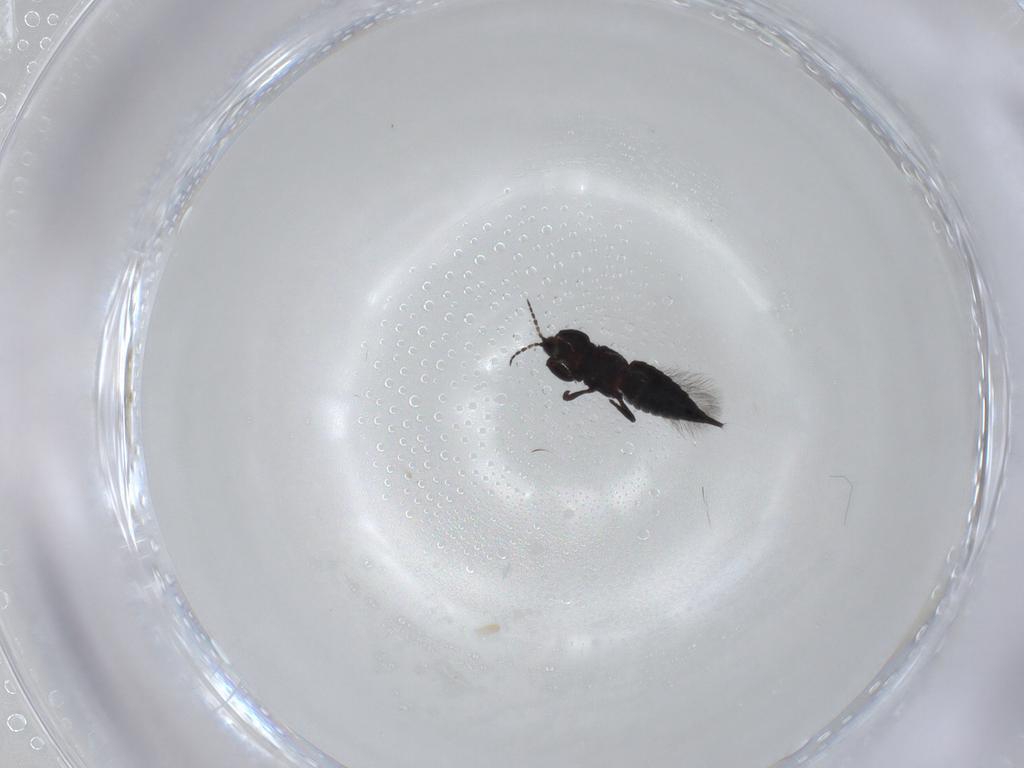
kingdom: Animalia
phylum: Arthropoda
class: Insecta
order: Thysanoptera
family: Phlaeothripidae
